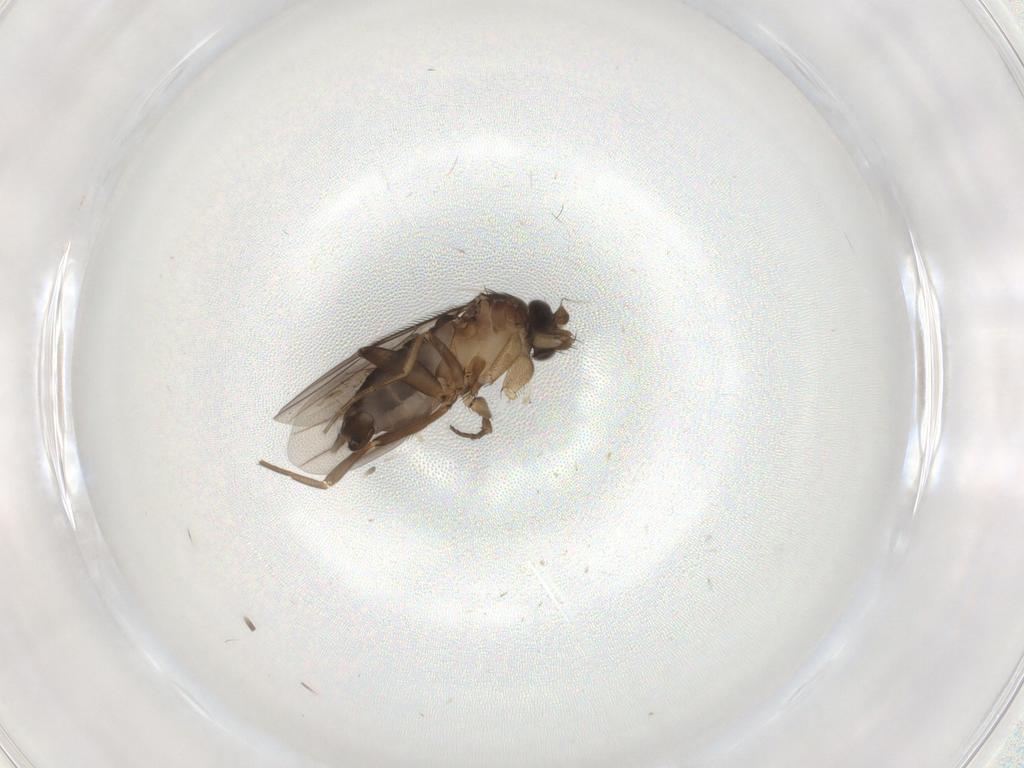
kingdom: Animalia
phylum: Arthropoda
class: Insecta
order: Diptera
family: Phoridae
